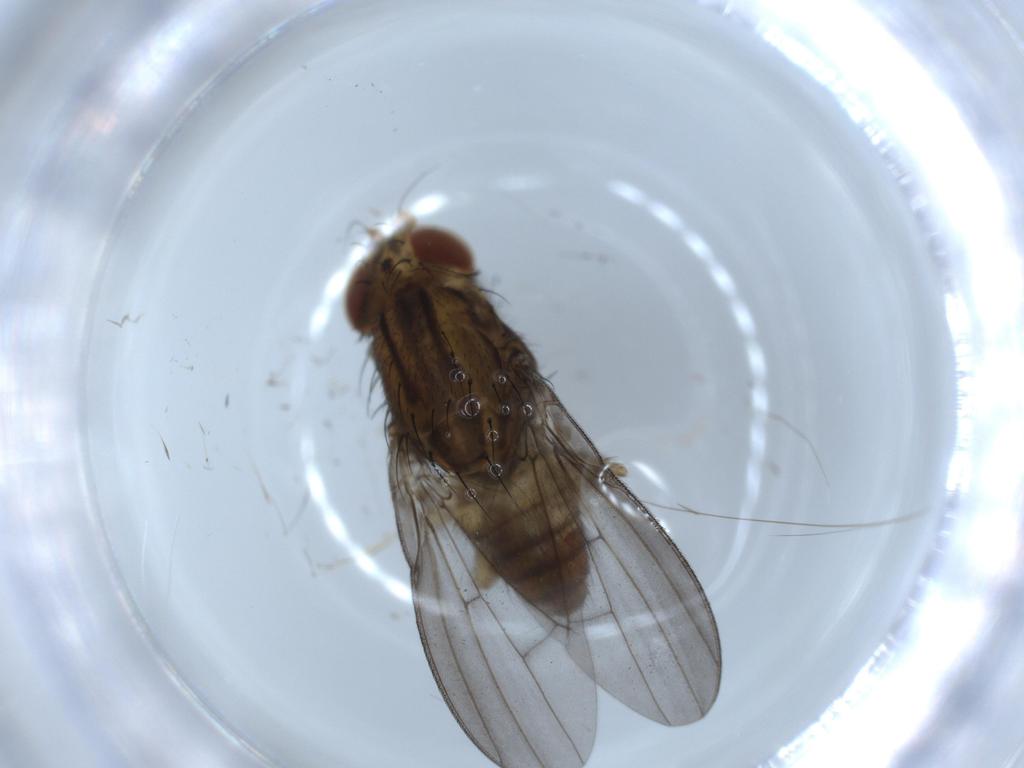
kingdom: Animalia
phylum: Arthropoda
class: Insecta
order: Diptera
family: Lauxaniidae
